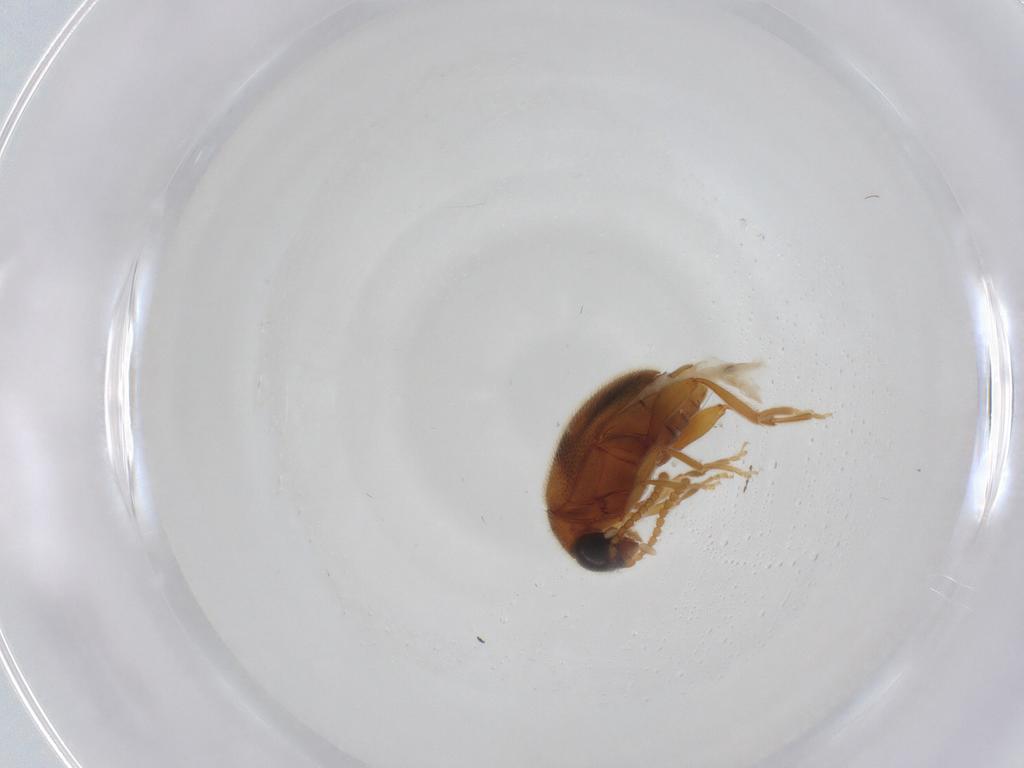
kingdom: Animalia
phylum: Arthropoda
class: Insecta
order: Coleoptera
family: Aderidae
